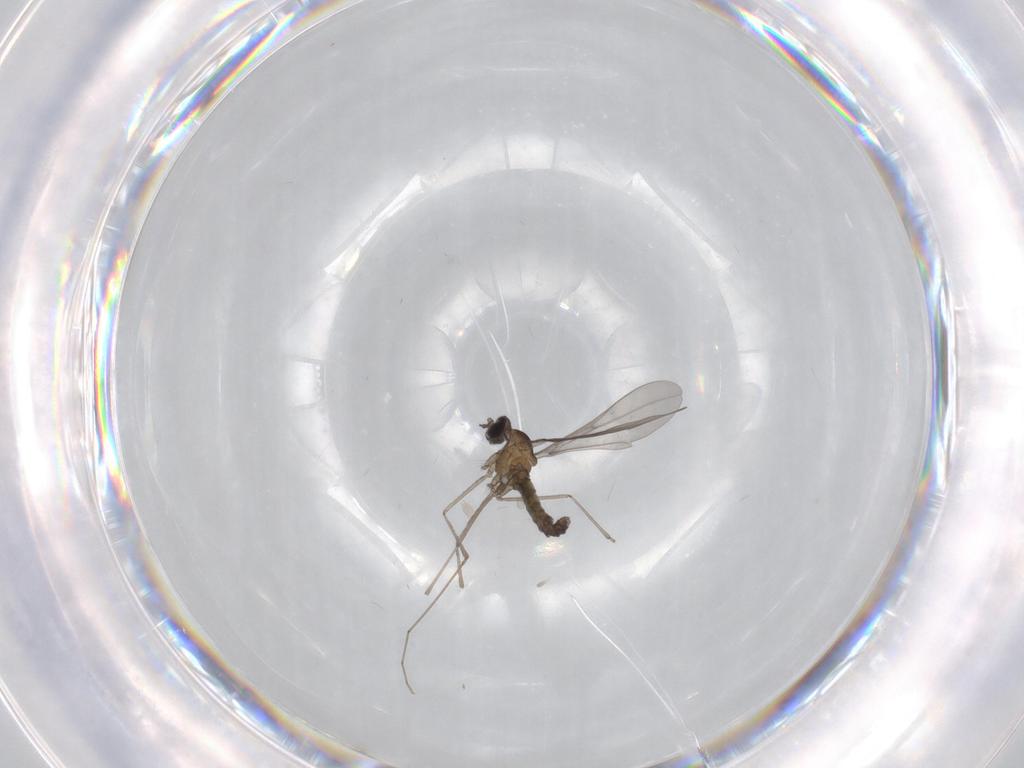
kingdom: Animalia
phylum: Arthropoda
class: Insecta
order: Diptera
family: Cecidomyiidae
